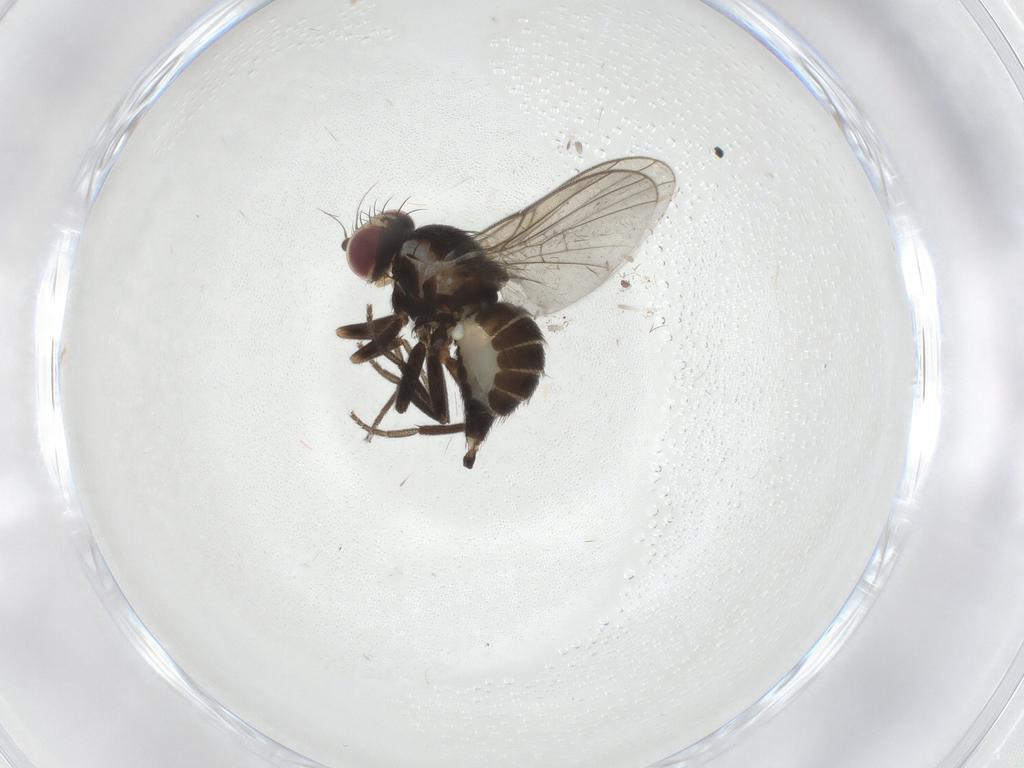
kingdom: Animalia
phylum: Arthropoda
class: Insecta
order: Diptera
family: Agromyzidae
